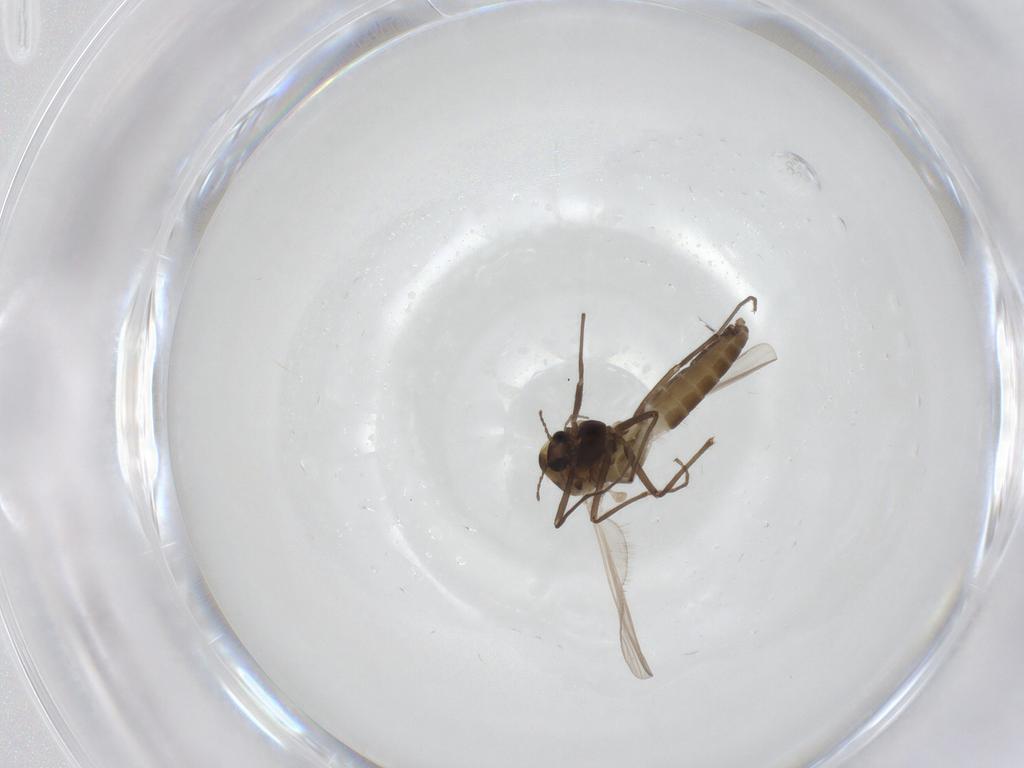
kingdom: Animalia
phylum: Arthropoda
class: Insecta
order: Diptera
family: Chironomidae
